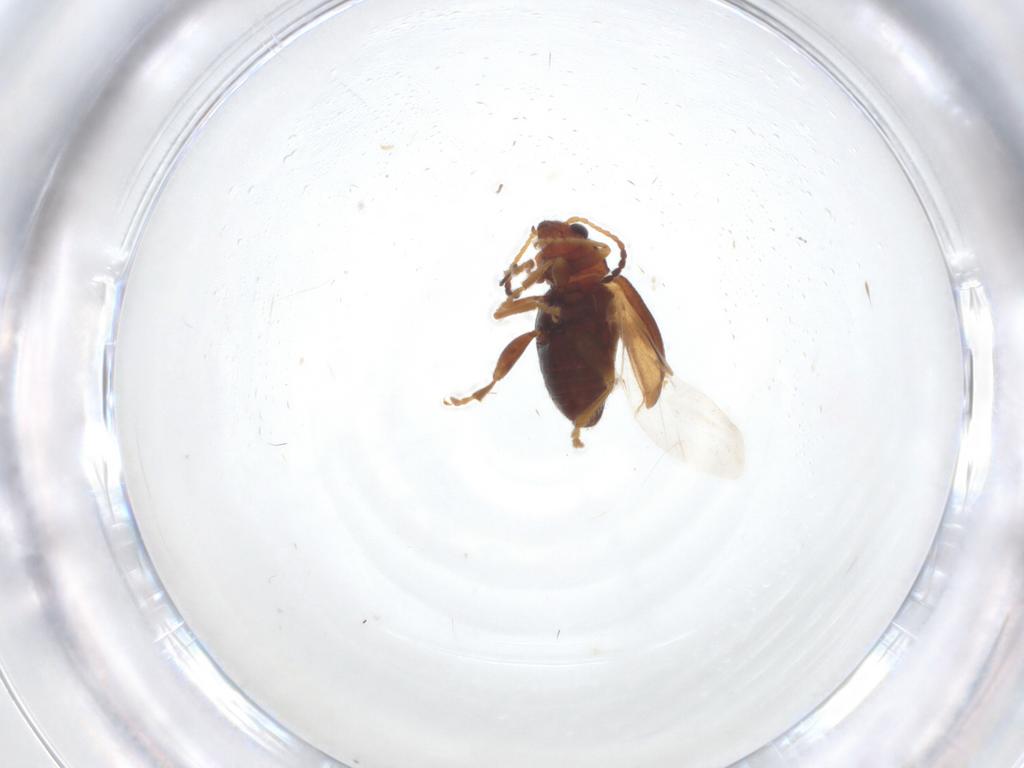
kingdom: Animalia
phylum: Arthropoda
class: Insecta
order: Coleoptera
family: Chrysomelidae
